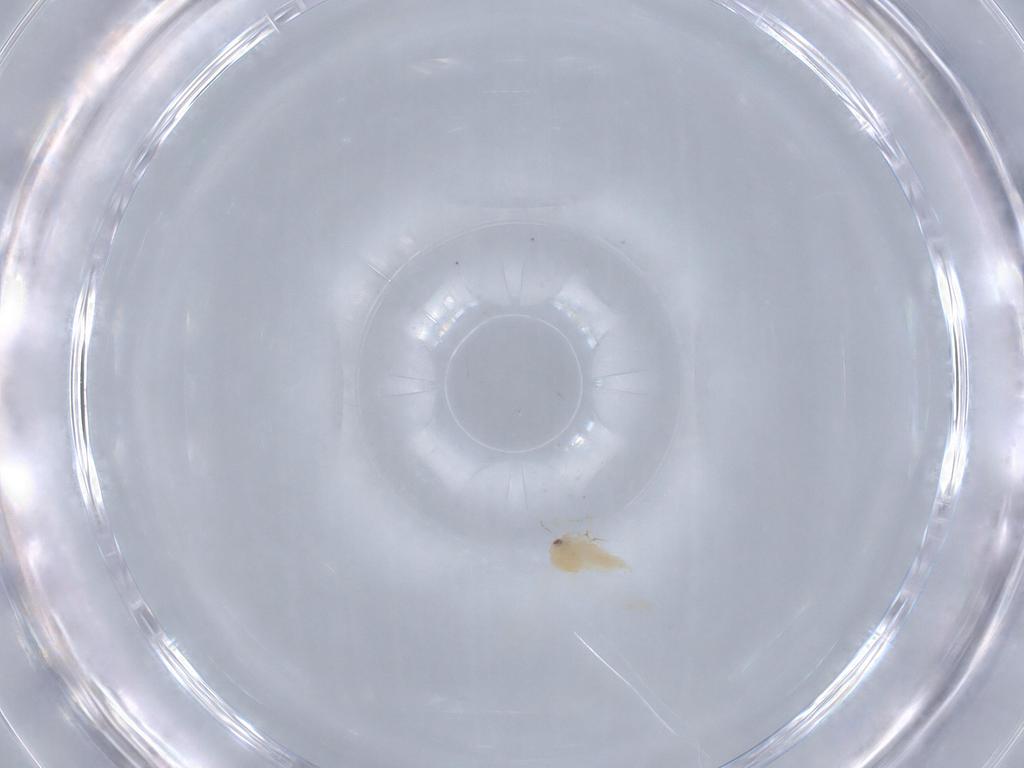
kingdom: Animalia
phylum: Arthropoda
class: Insecta
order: Hemiptera
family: Aleyrodidae
